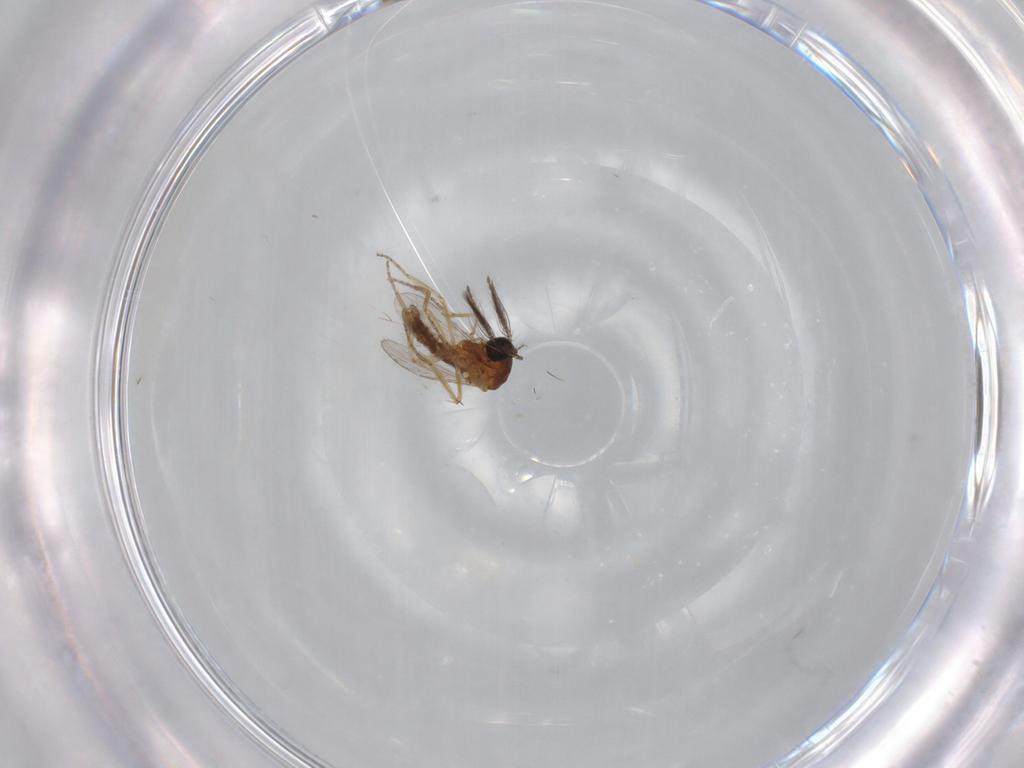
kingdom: Animalia
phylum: Arthropoda
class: Insecta
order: Diptera
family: Ceratopogonidae
